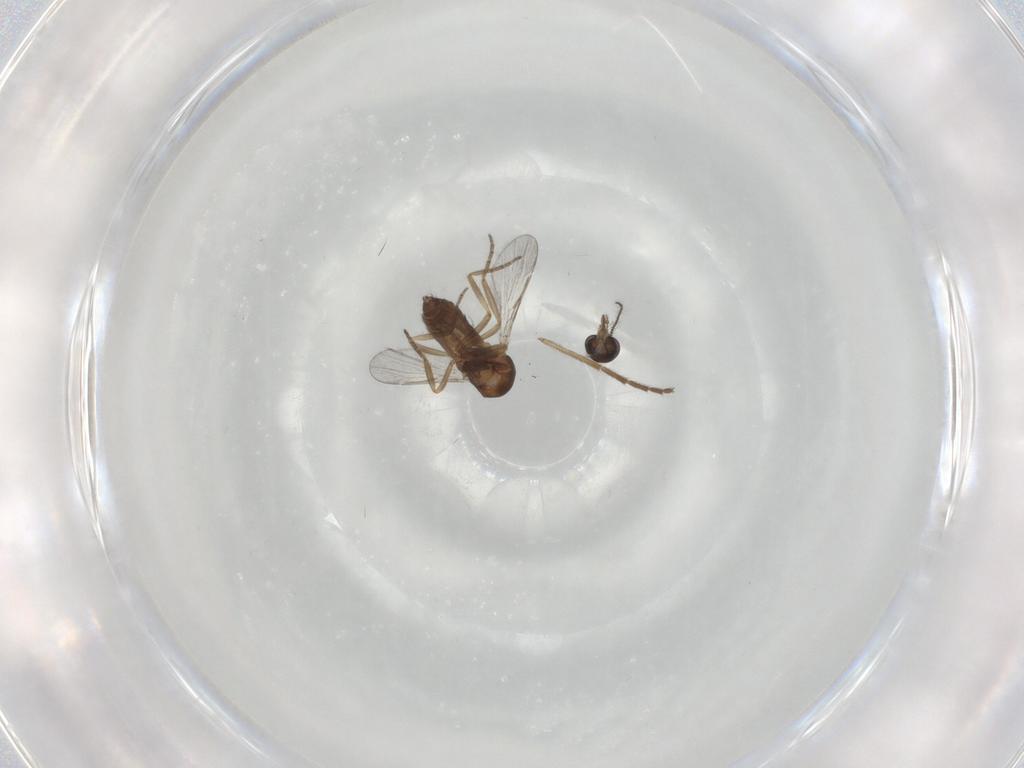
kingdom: Animalia
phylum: Arthropoda
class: Insecta
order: Diptera
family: Chironomidae
